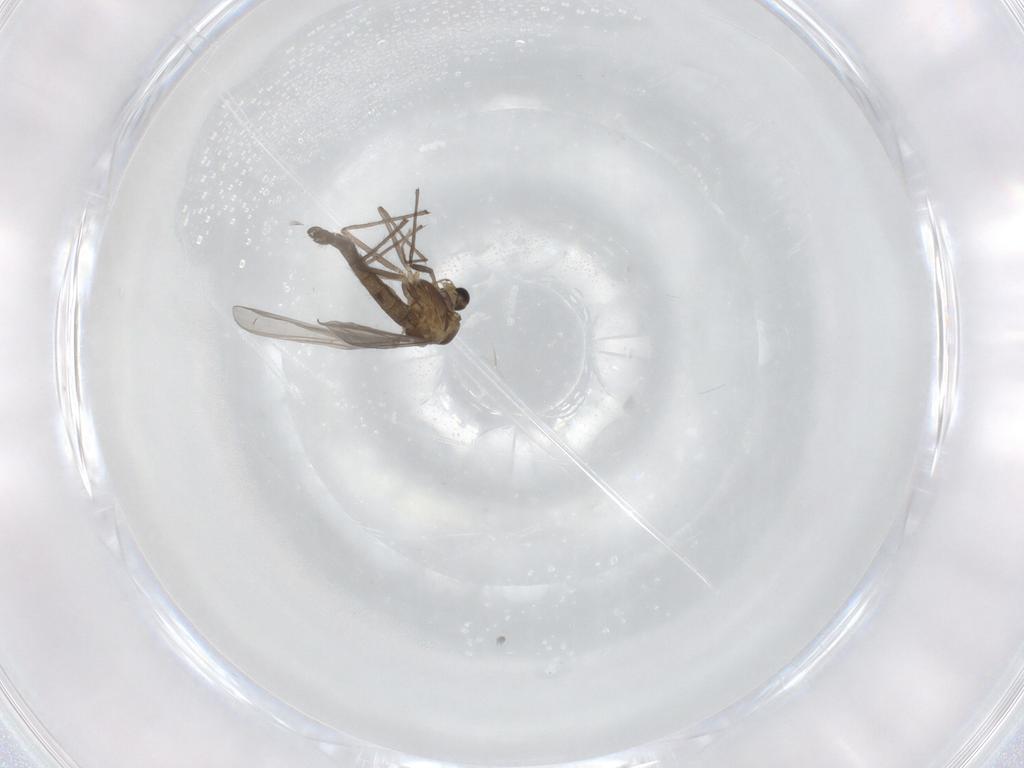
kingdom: Animalia
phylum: Arthropoda
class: Insecta
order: Diptera
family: Chironomidae
